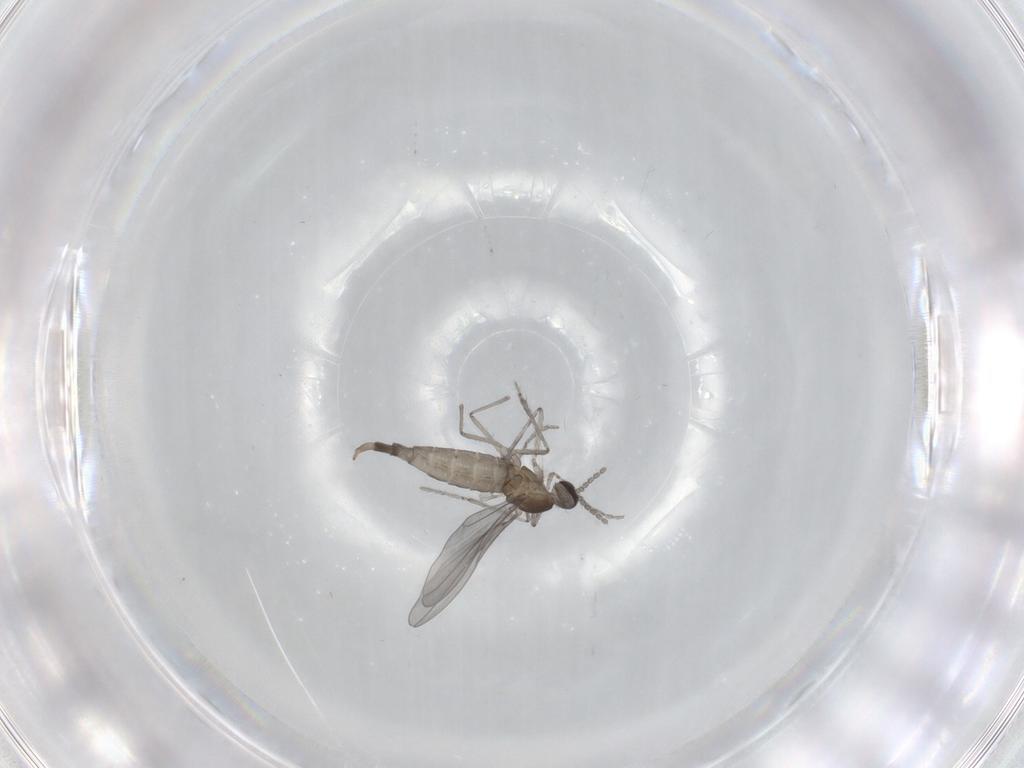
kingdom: Animalia
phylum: Arthropoda
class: Insecta
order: Diptera
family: Cecidomyiidae
